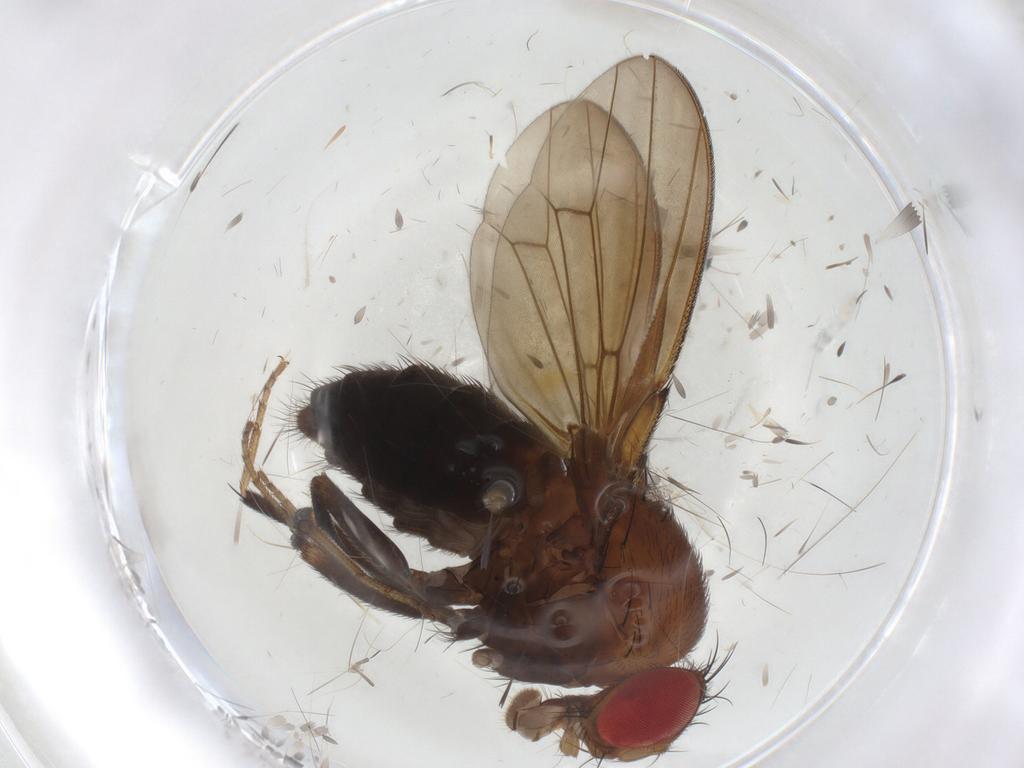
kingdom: Animalia
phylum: Arthropoda
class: Insecta
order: Diptera
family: Drosophilidae
